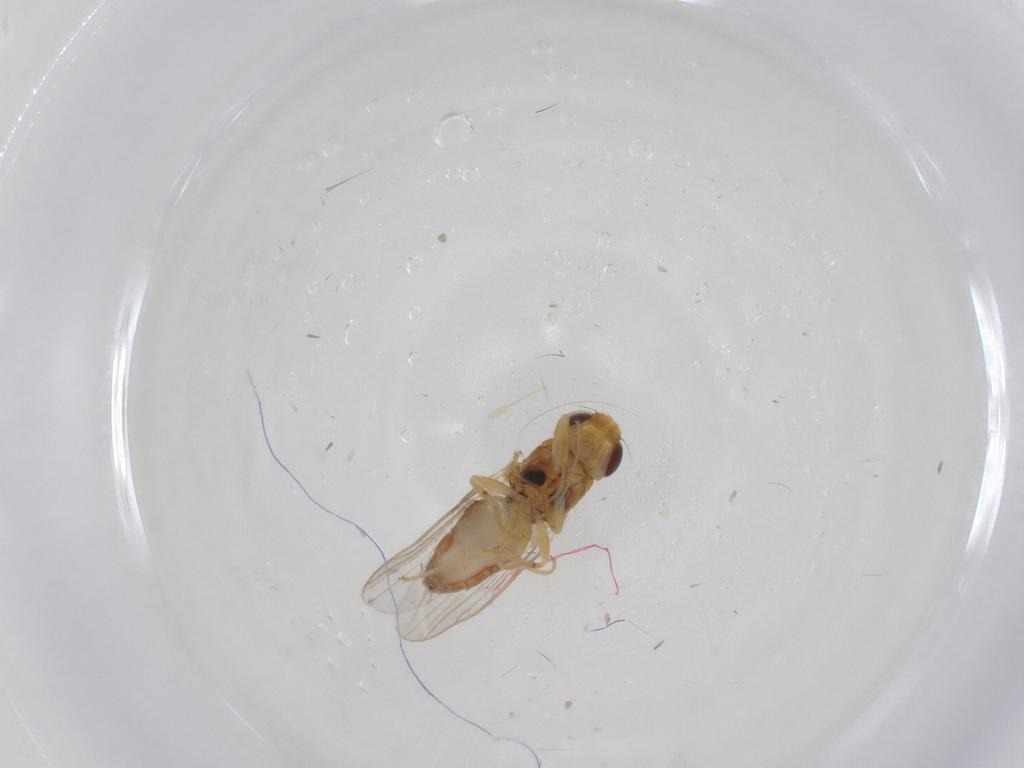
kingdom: Animalia
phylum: Arthropoda
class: Insecta
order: Diptera
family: Chloropidae
